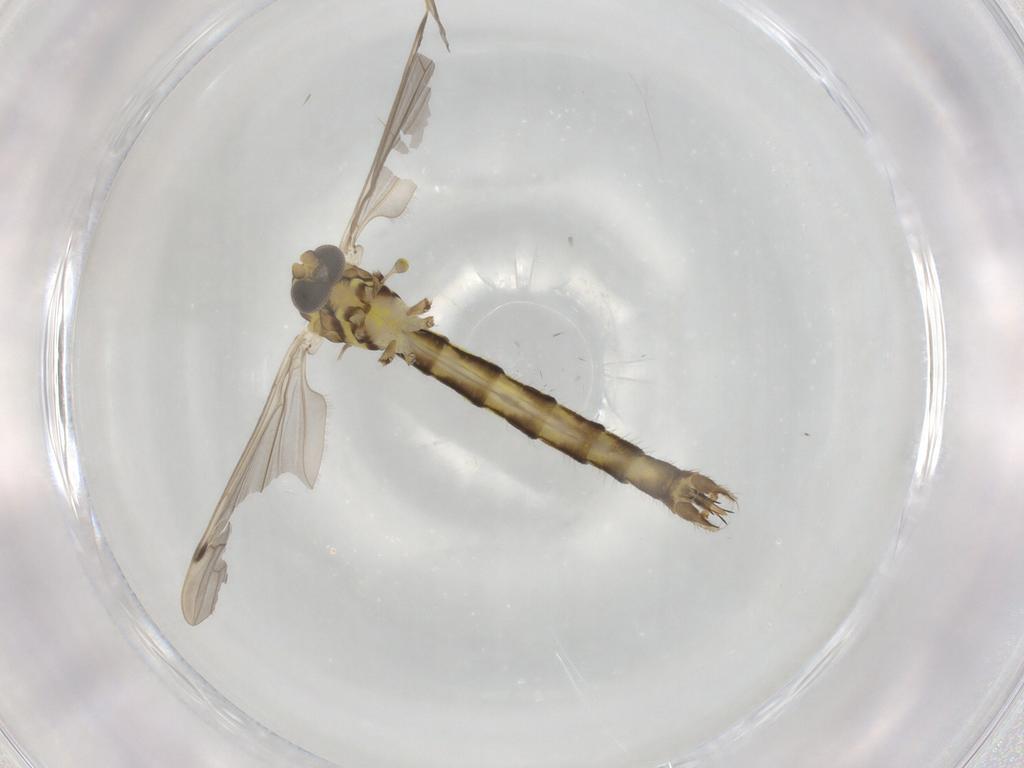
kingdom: Animalia
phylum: Arthropoda
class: Insecta
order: Diptera
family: Dolichopodidae
